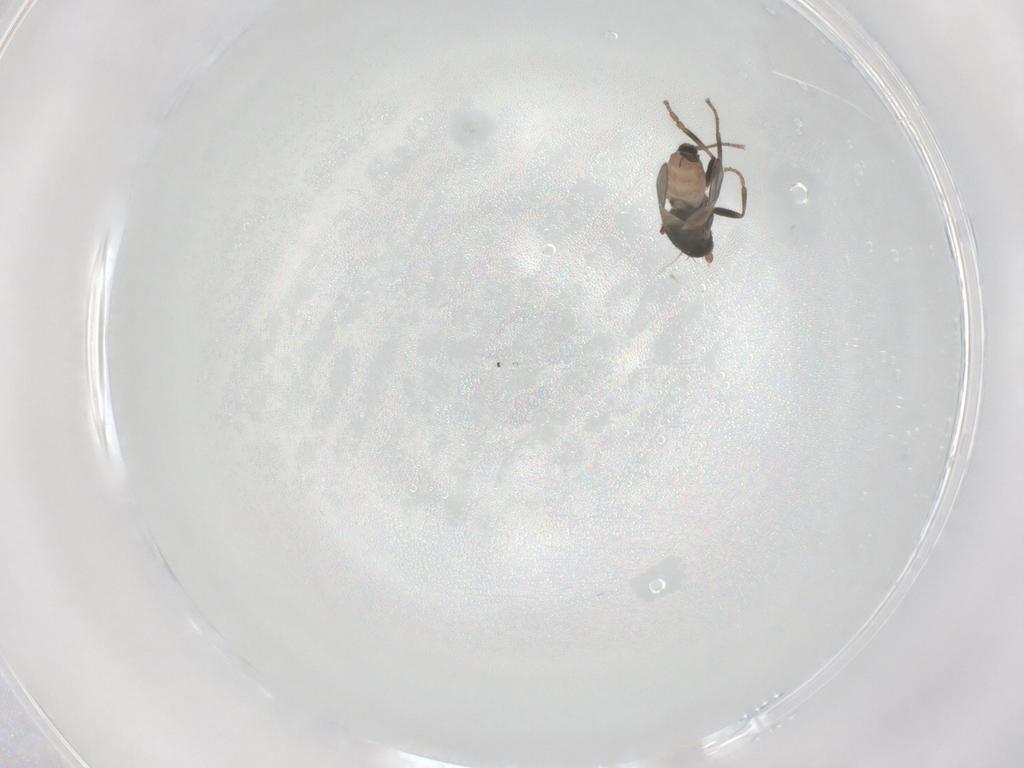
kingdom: Animalia
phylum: Arthropoda
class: Insecta
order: Diptera
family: Sphaeroceridae
